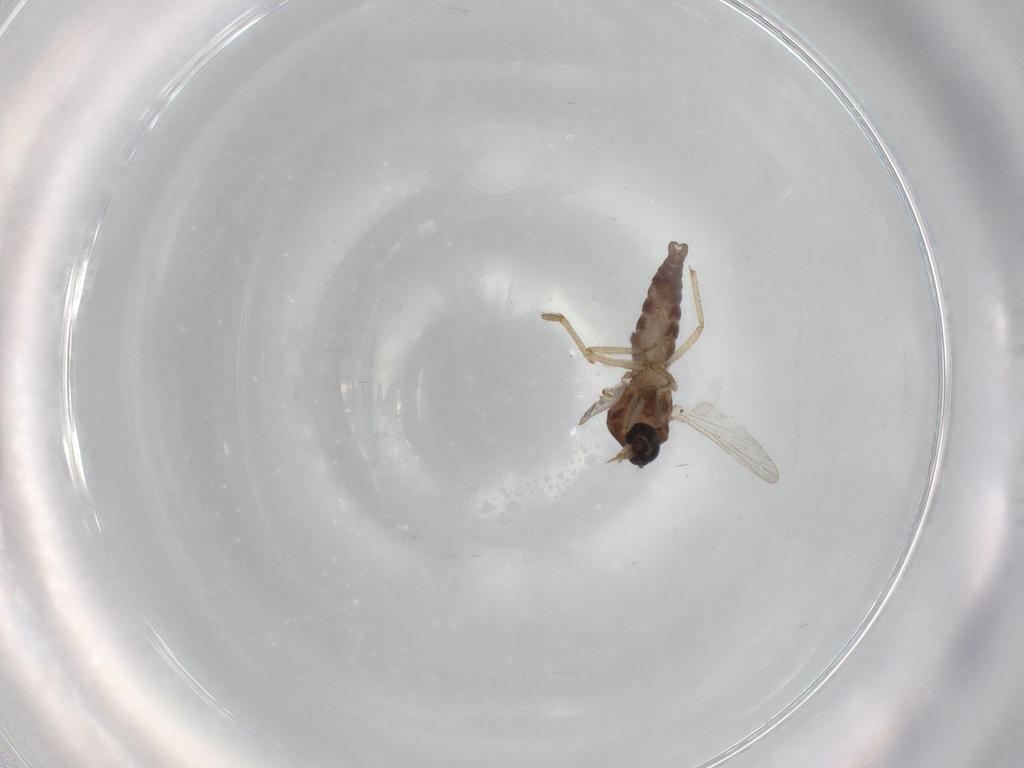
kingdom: Animalia
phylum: Arthropoda
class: Insecta
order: Diptera
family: Ceratopogonidae
